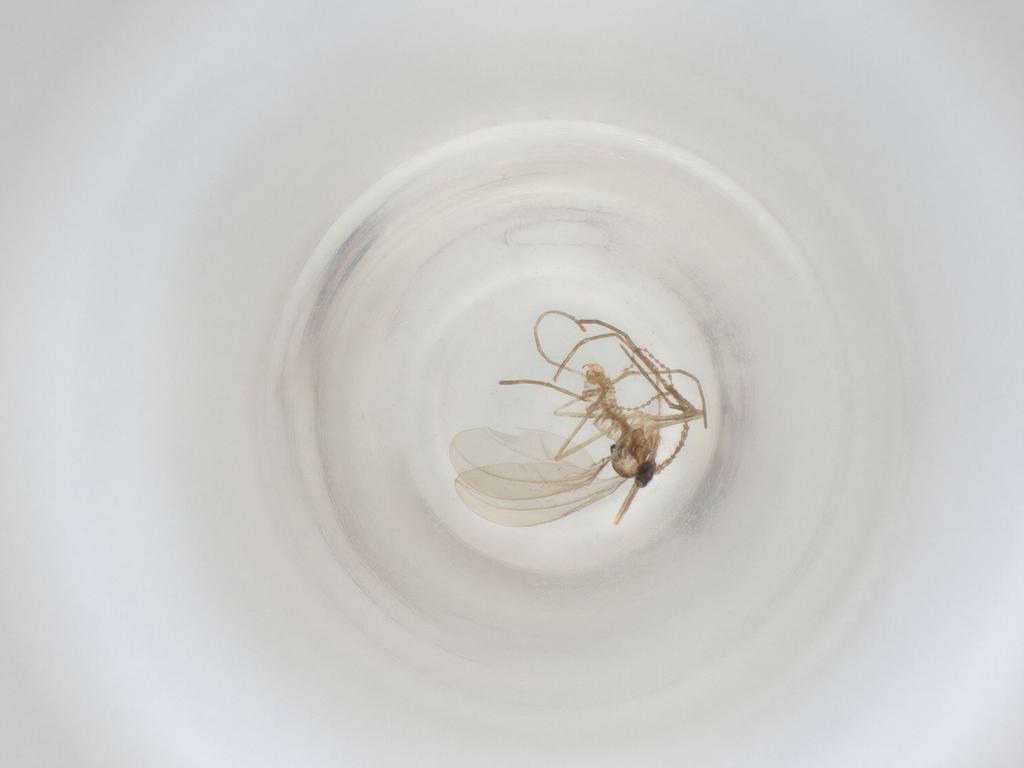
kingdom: Animalia
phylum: Arthropoda
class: Insecta
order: Diptera
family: Cecidomyiidae
